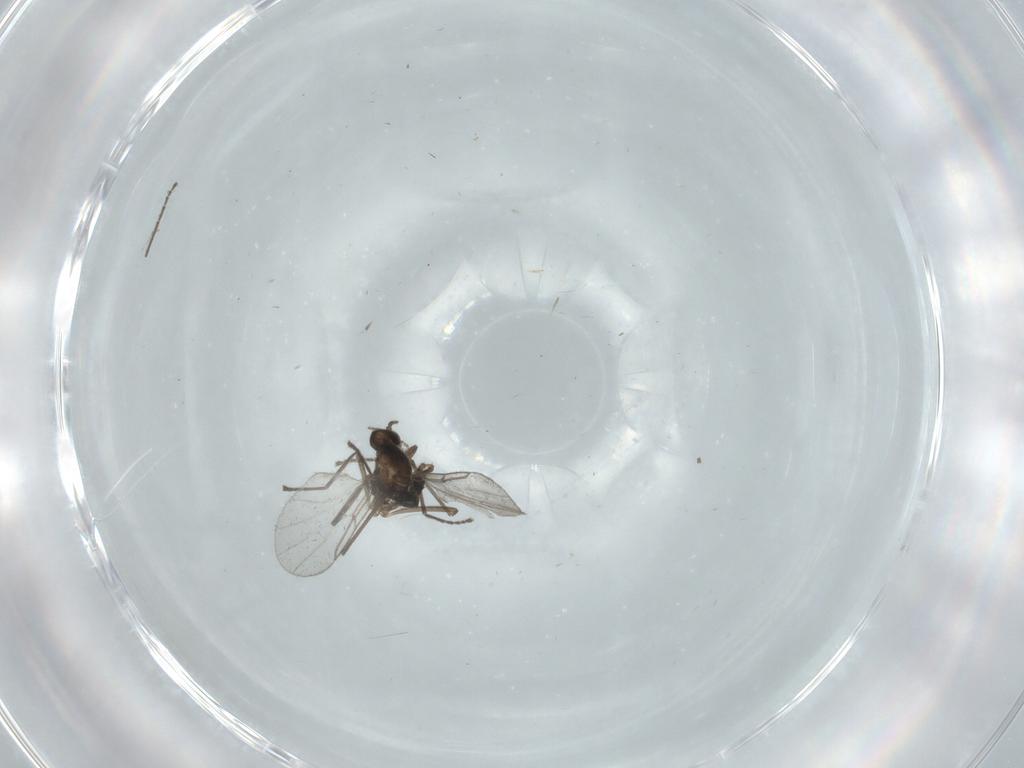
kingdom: Animalia
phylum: Arthropoda
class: Insecta
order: Diptera
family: Cecidomyiidae
